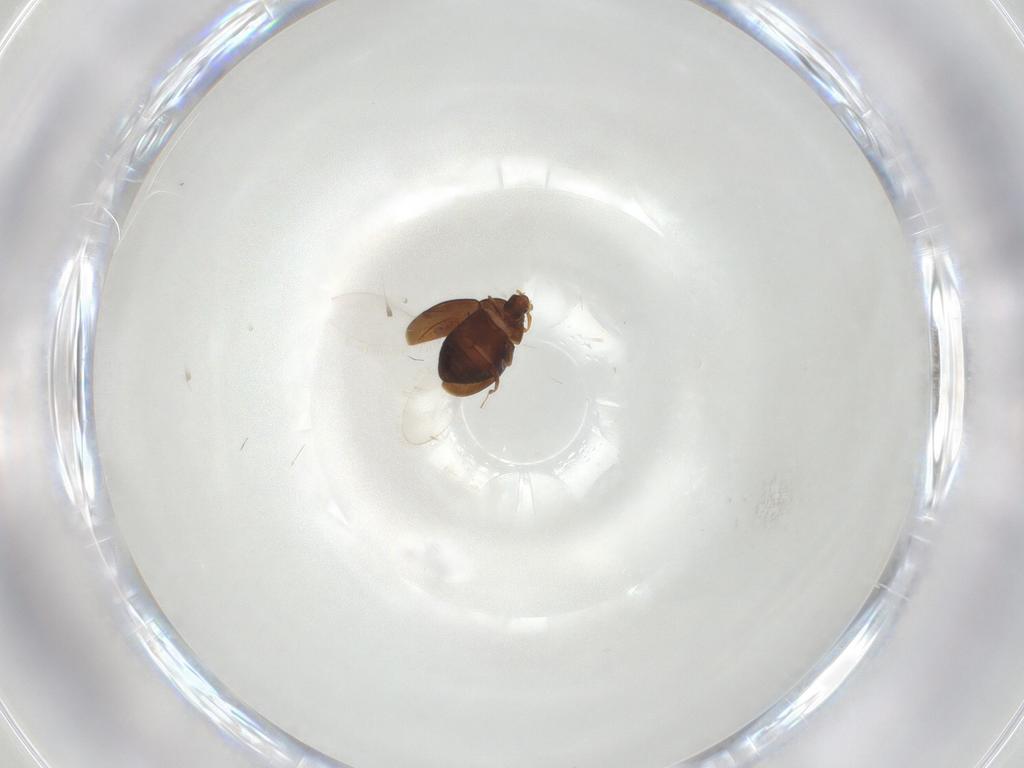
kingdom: Animalia
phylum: Arthropoda
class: Insecta
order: Coleoptera
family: Corylophidae
